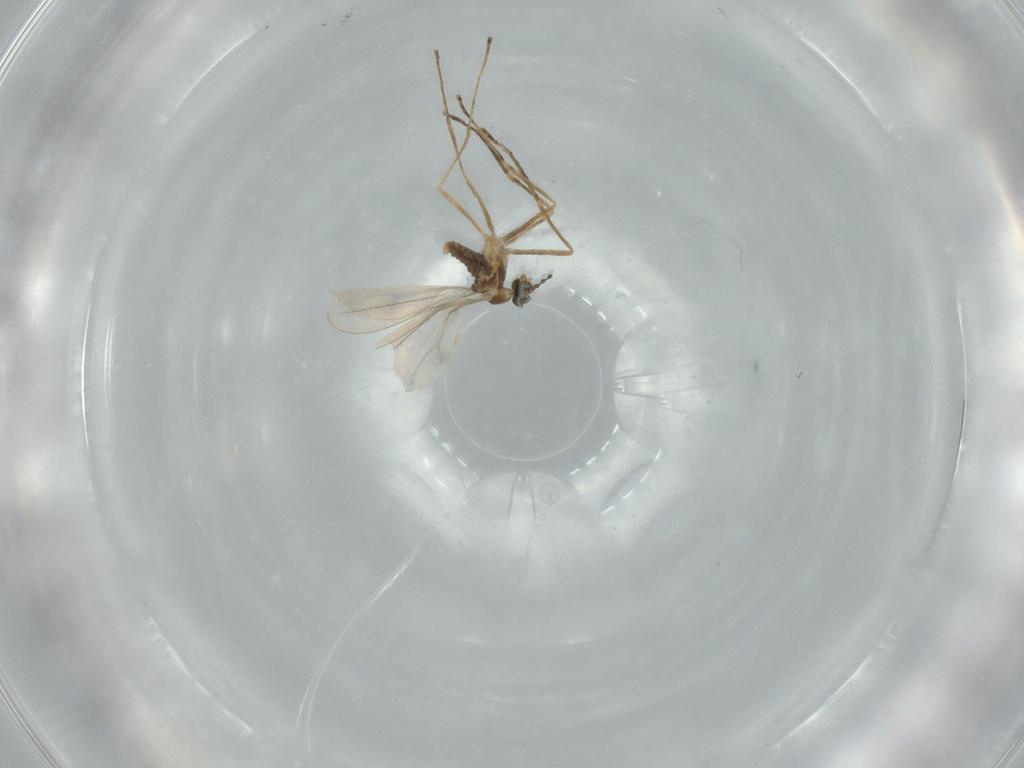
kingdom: Animalia
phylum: Arthropoda
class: Insecta
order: Diptera
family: Cecidomyiidae
